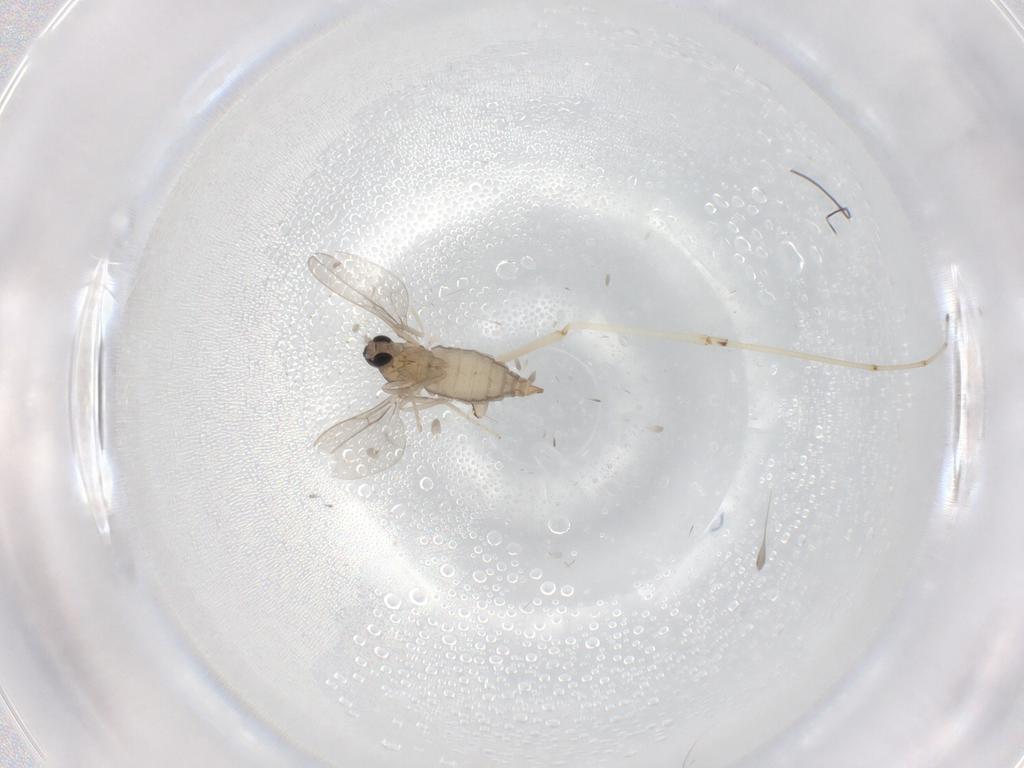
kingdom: Animalia
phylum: Arthropoda
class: Insecta
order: Diptera
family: Cecidomyiidae
